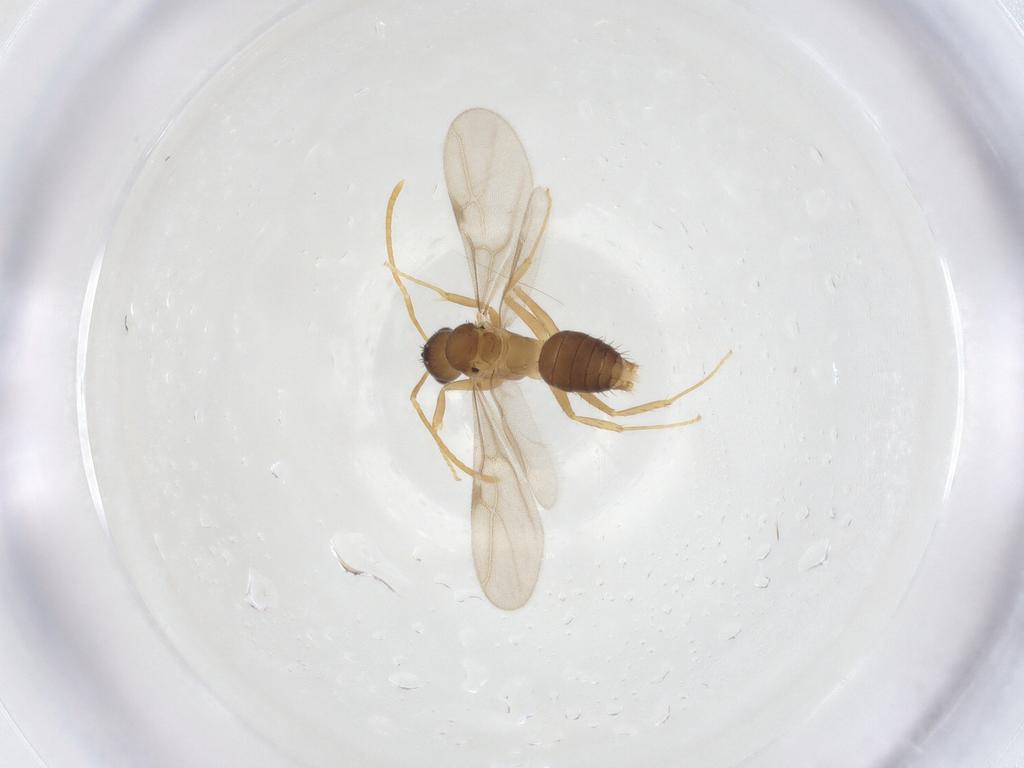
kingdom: Animalia
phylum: Arthropoda
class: Insecta
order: Hymenoptera
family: Formicidae
